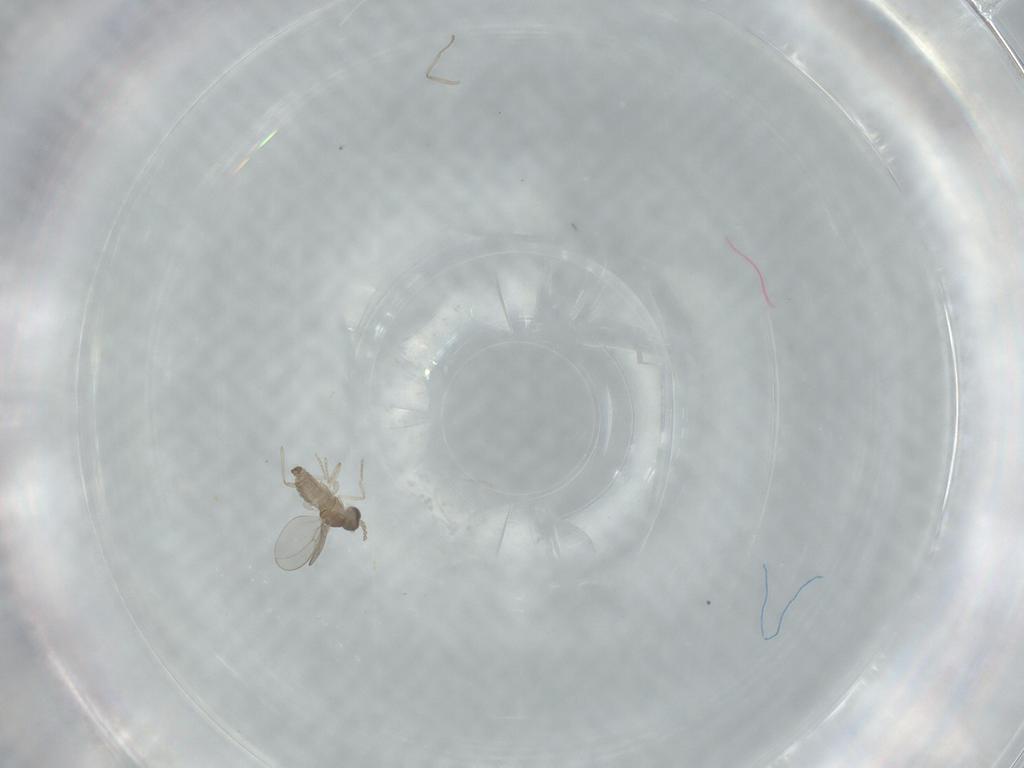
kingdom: Animalia
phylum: Arthropoda
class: Insecta
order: Diptera
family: Cecidomyiidae
